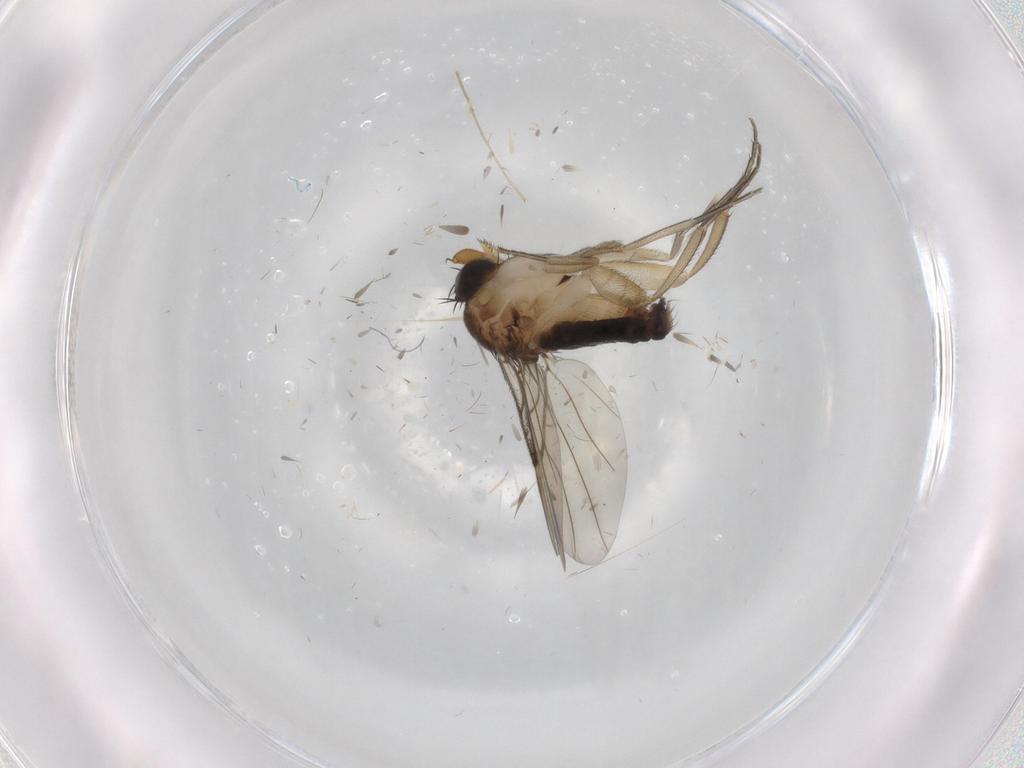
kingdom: Animalia
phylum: Arthropoda
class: Insecta
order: Diptera
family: Phoridae
